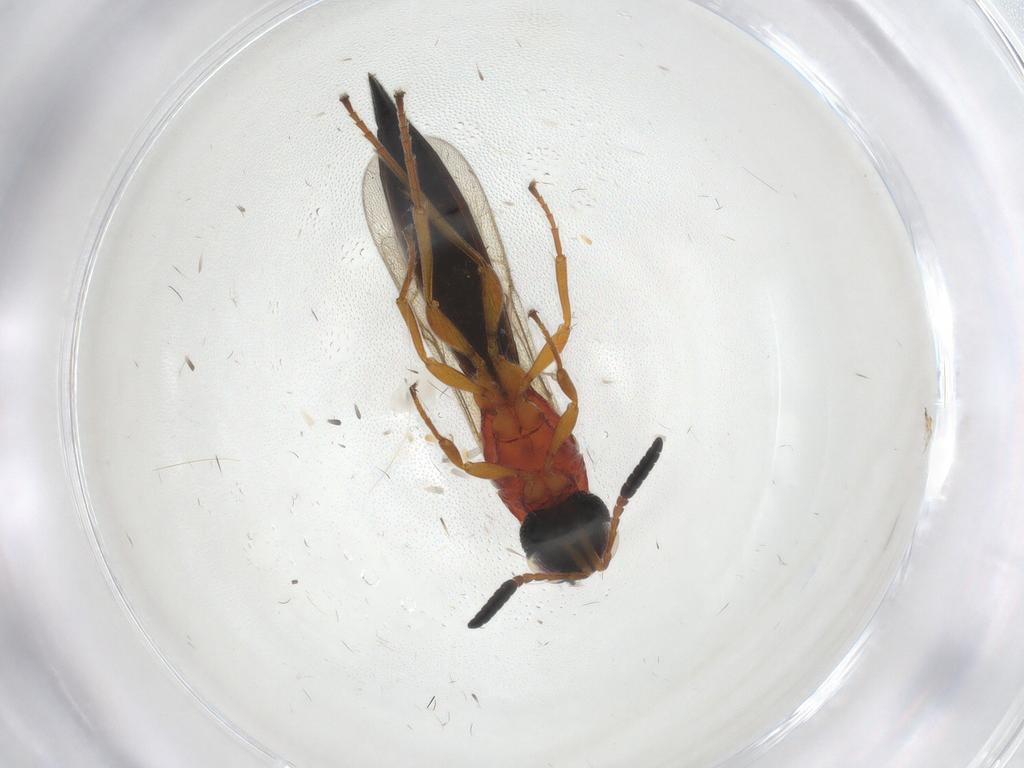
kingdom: Animalia
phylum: Arthropoda
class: Insecta
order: Hymenoptera
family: Scelionidae
